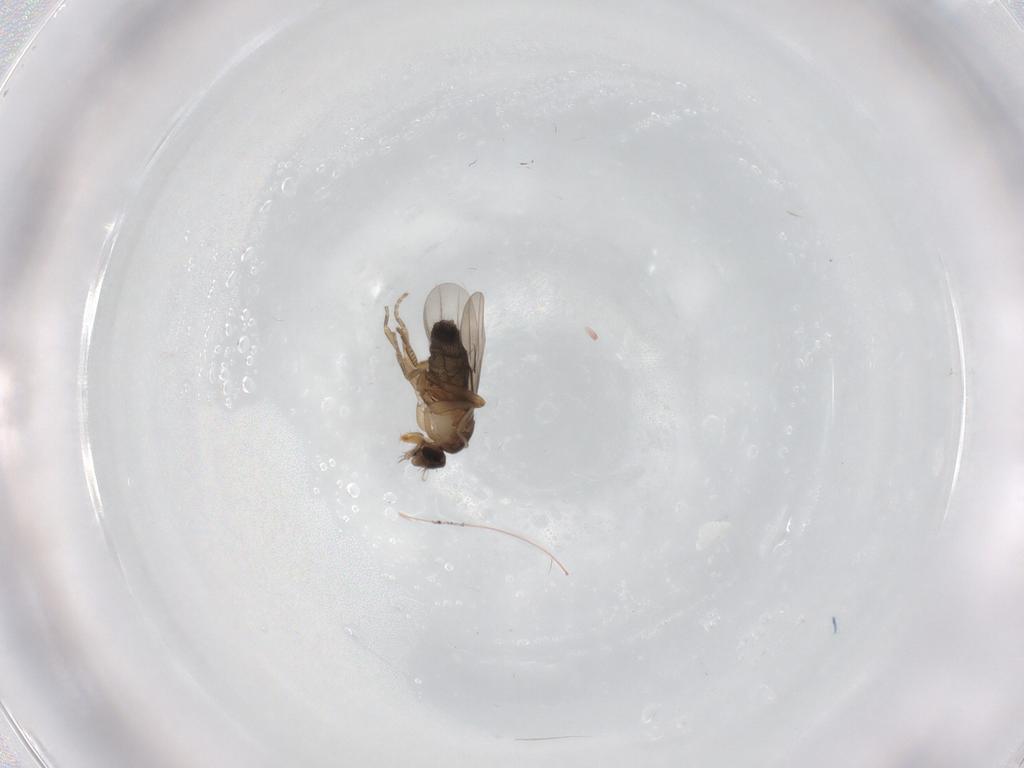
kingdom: Animalia
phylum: Arthropoda
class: Insecta
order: Diptera
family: Phoridae
